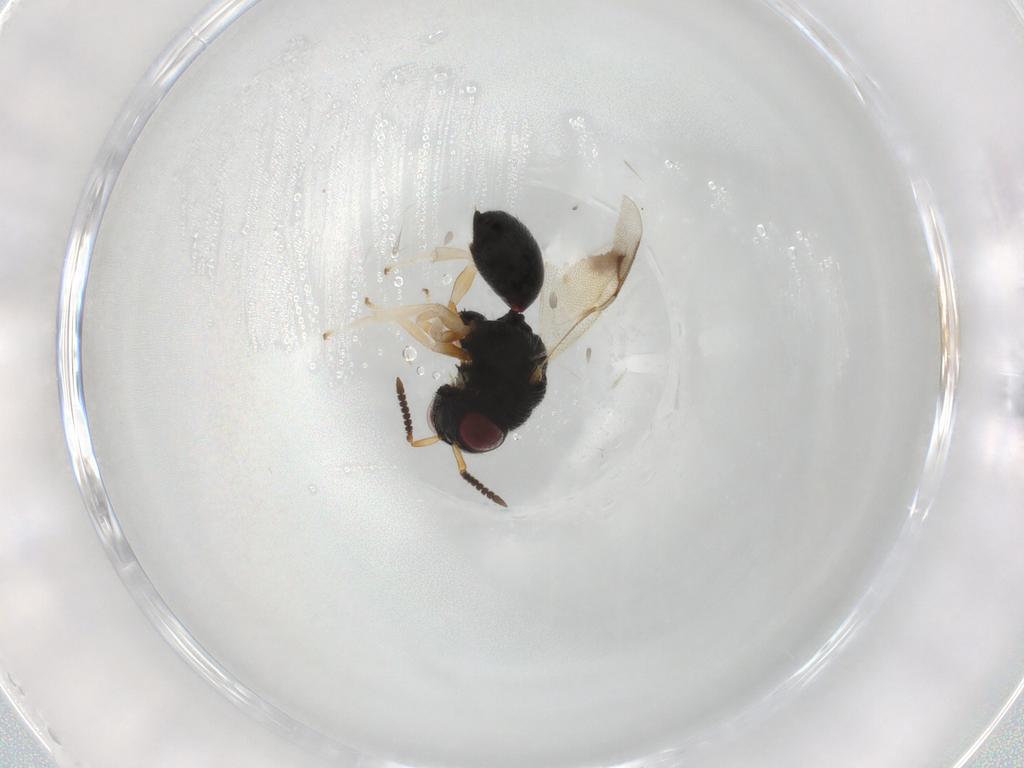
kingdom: Animalia
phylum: Arthropoda
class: Insecta
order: Hymenoptera
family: Eurytomidae
